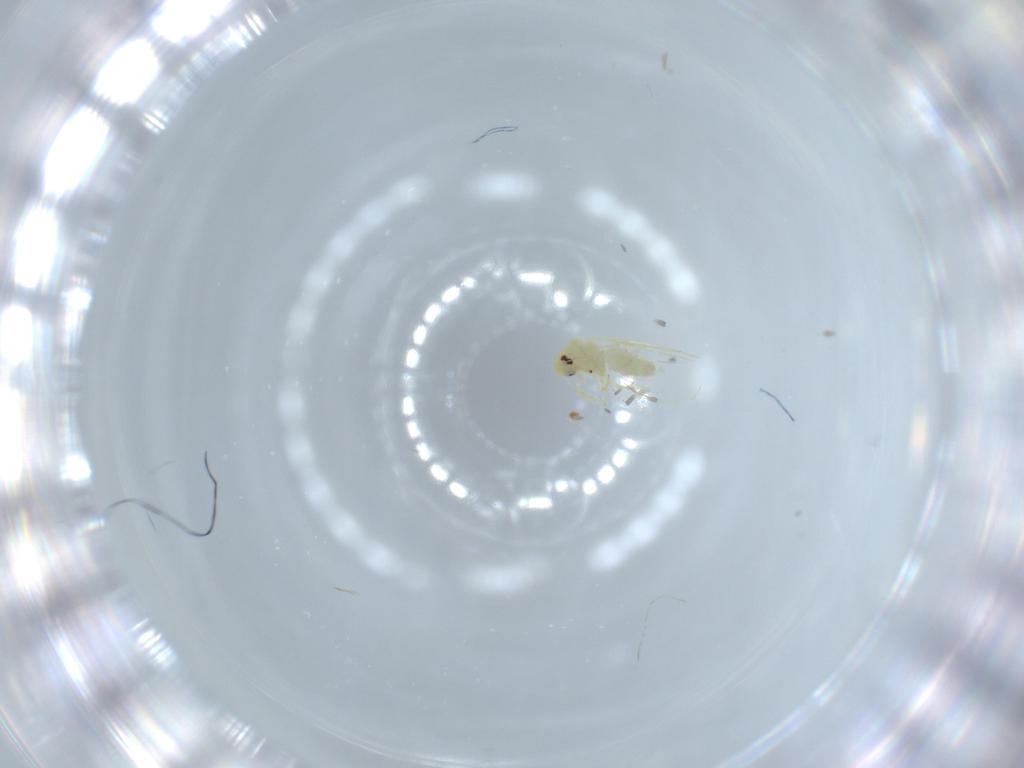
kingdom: Animalia
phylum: Arthropoda
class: Insecta
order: Hemiptera
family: Aleyrodidae
